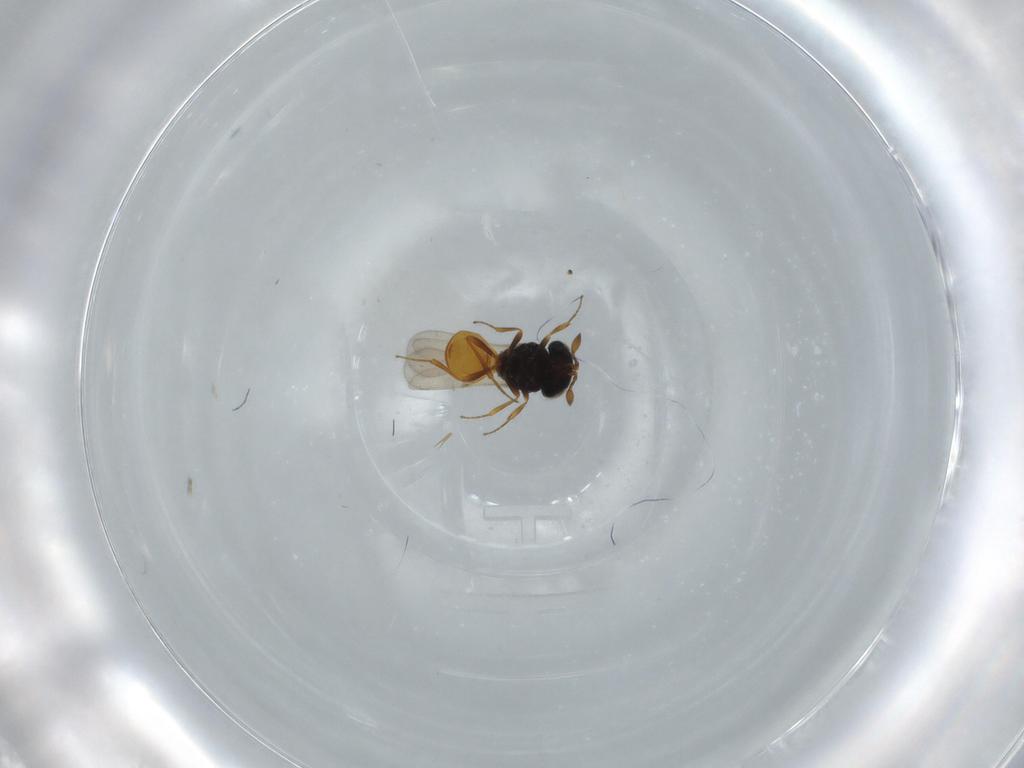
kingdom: Animalia
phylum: Arthropoda
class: Insecta
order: Hymenoptera
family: Scelionidae
